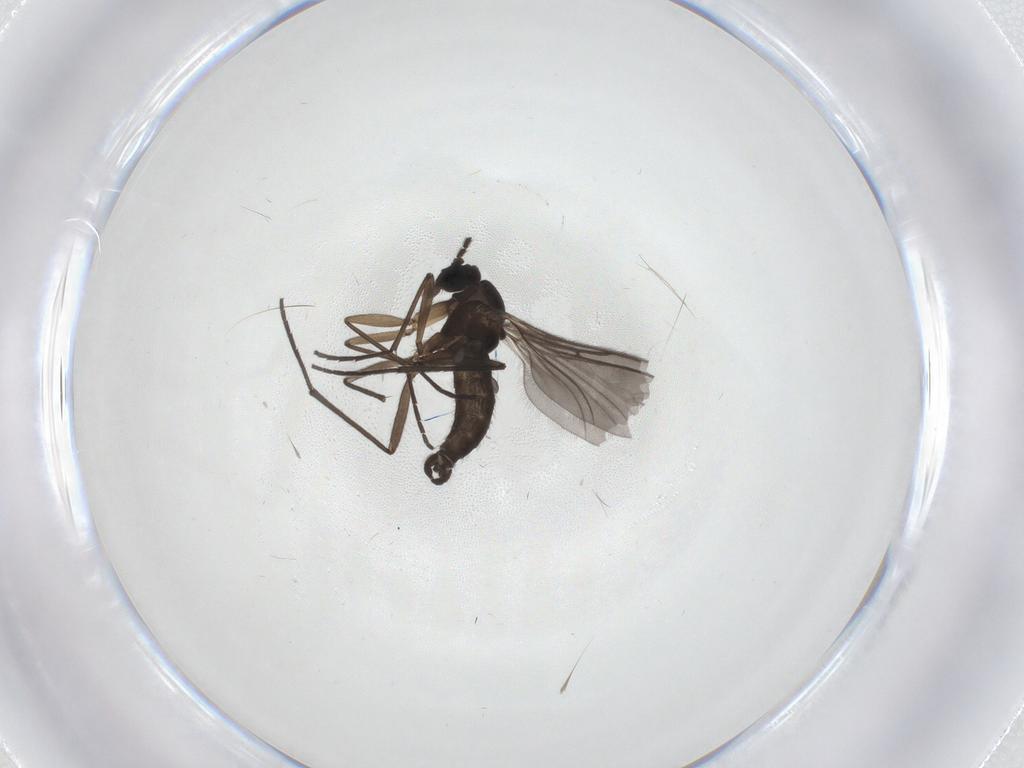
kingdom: Animalia
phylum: Arthropoda
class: Insecta
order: Diptera
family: Sciaridae
